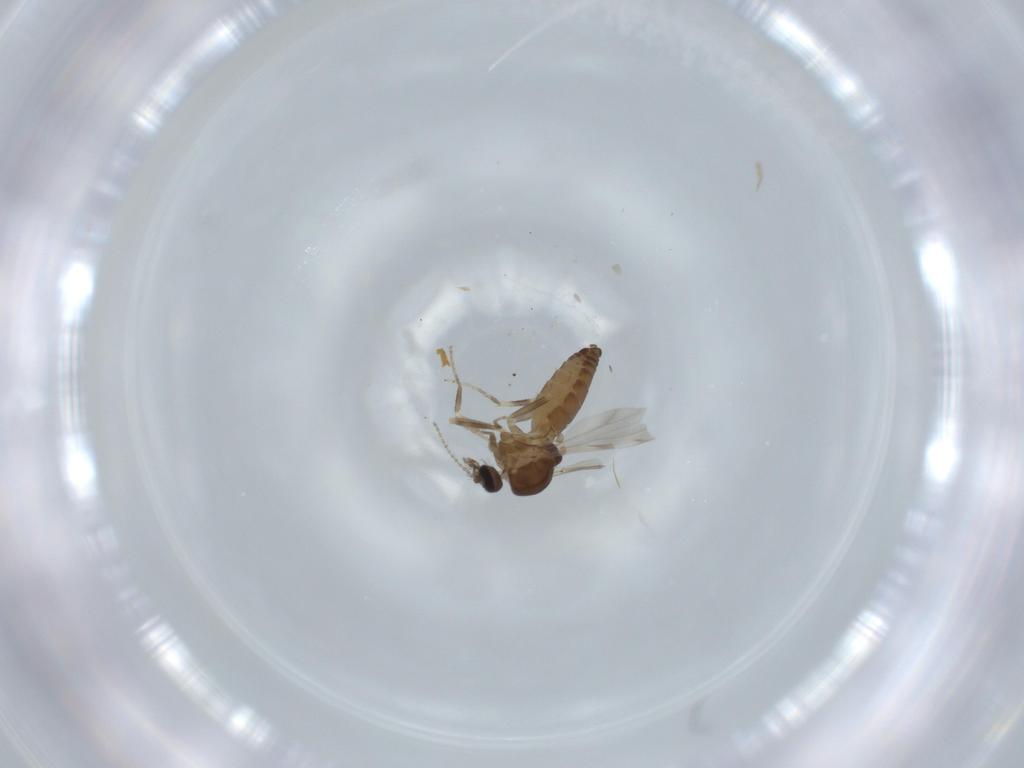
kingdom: Animalia
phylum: Arthropoda
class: Insecta
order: Diptera
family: Ceratopogonidae
